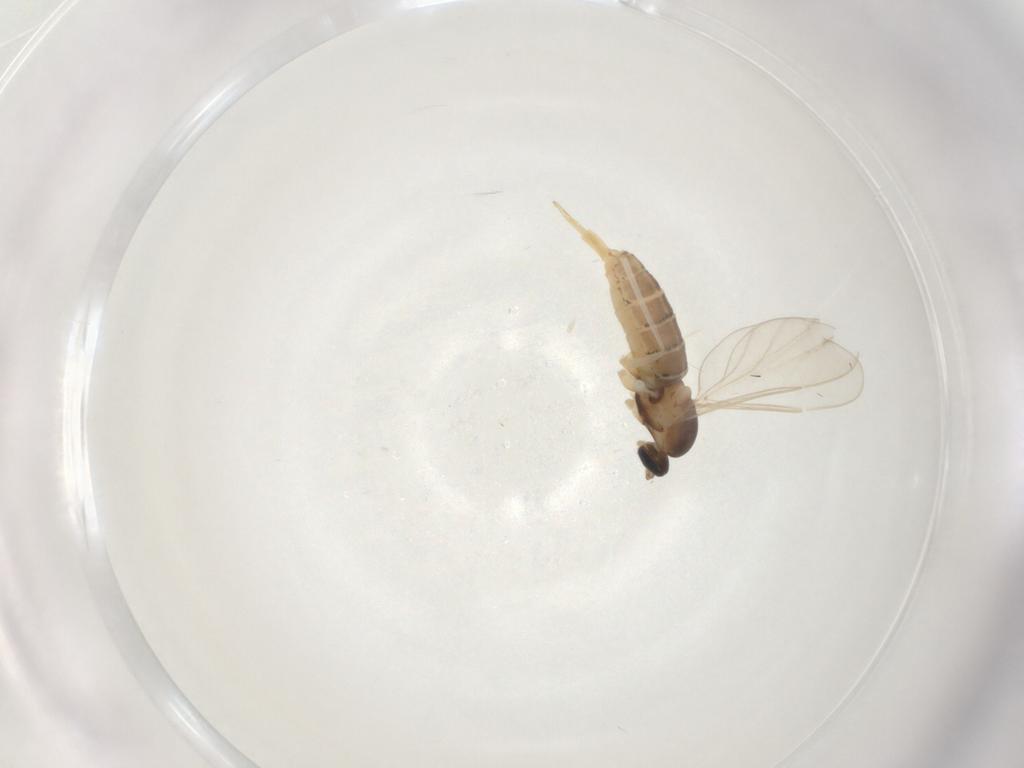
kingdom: Animalia
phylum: Arthropoda
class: Insecta
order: Diptera
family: Cecidomyiidae
